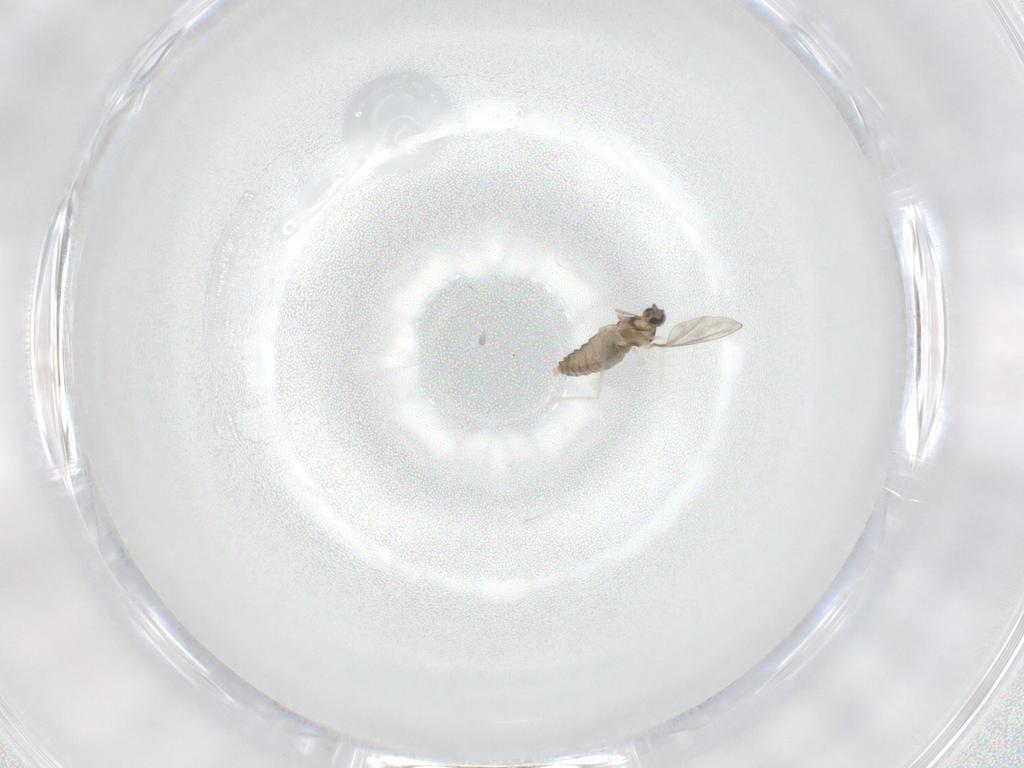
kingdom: Animalia
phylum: Arthropoda
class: Insecta
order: Diptera
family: Cecidomyiidae
